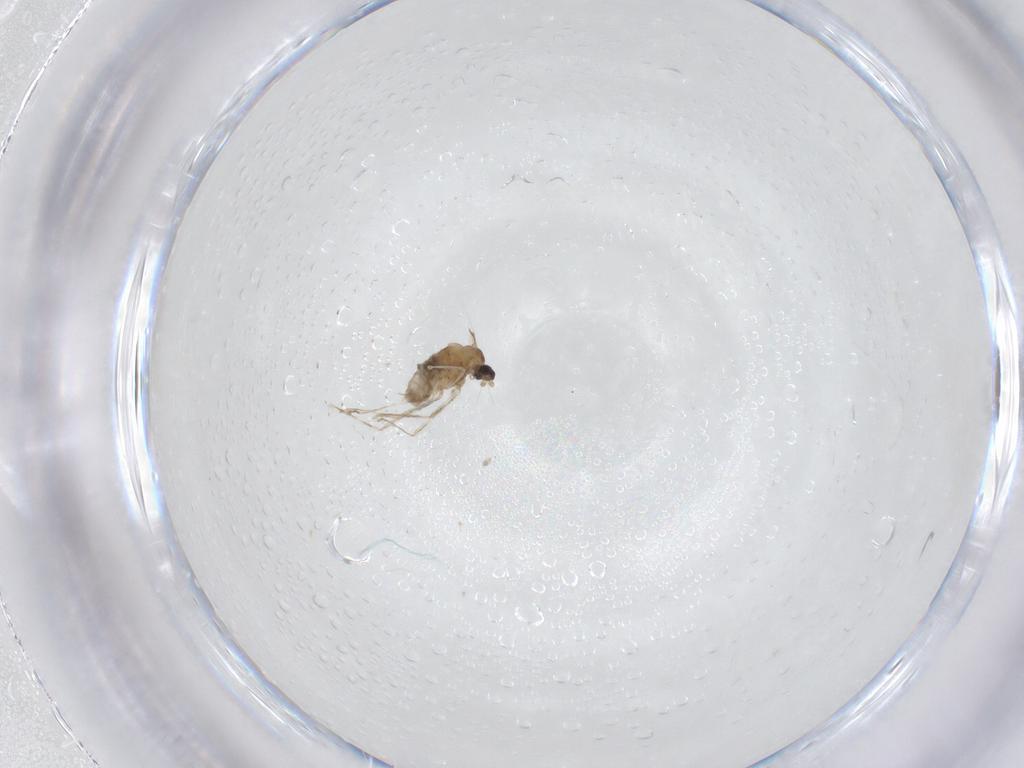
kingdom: Animalia
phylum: Arthropoda
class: Insecta
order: Diptera
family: Cecidomyiidae
